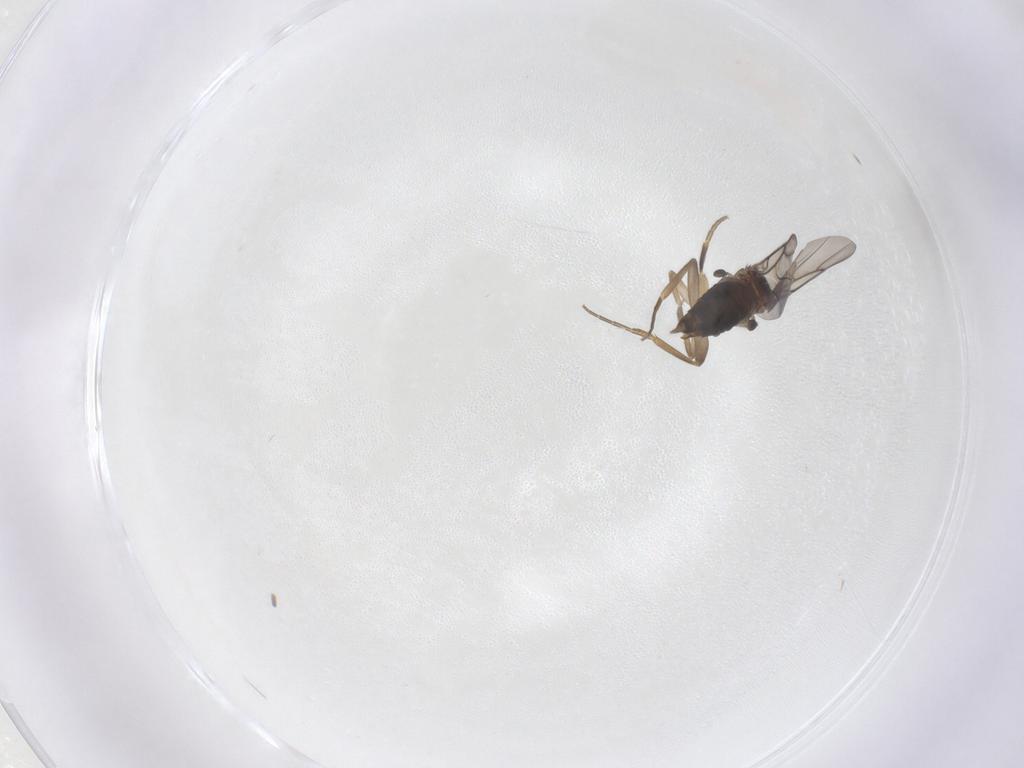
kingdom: Animalia
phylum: Arthropoda
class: Insecta
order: Diptera
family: Phoridae
